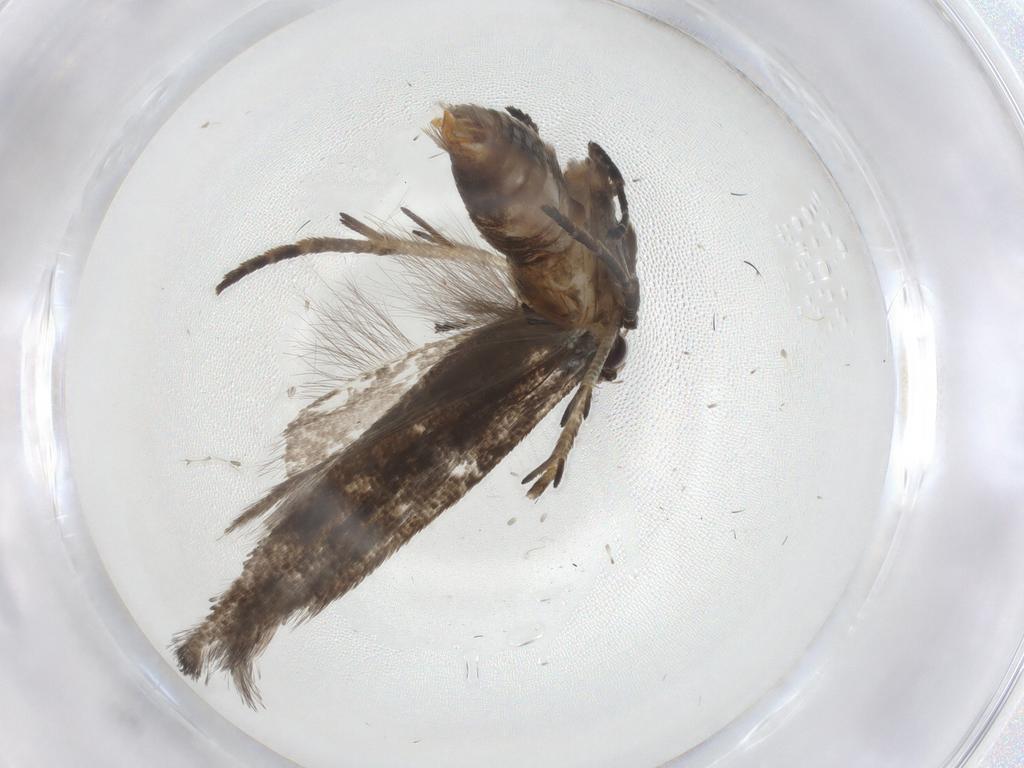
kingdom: Animalia
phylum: Arthropoda
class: Insecta
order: Lepidoptera
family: Gelechiidae
